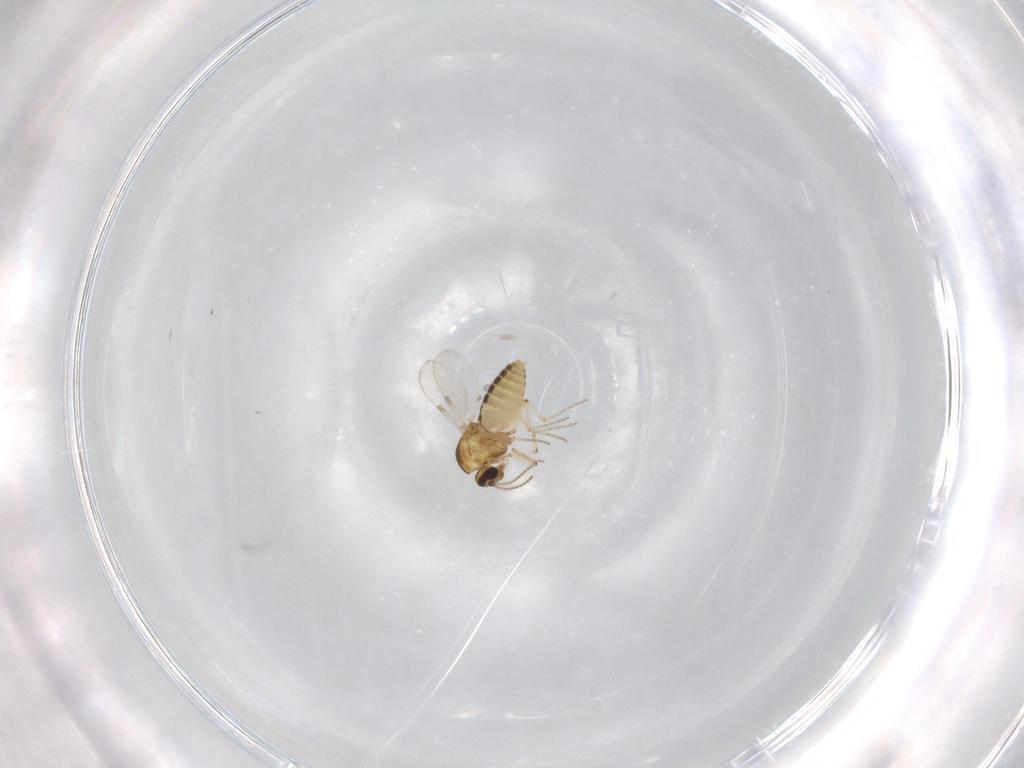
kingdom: Animalia
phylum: Arthropoda
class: Insecta
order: Diptera
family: Ceratopogonidae
